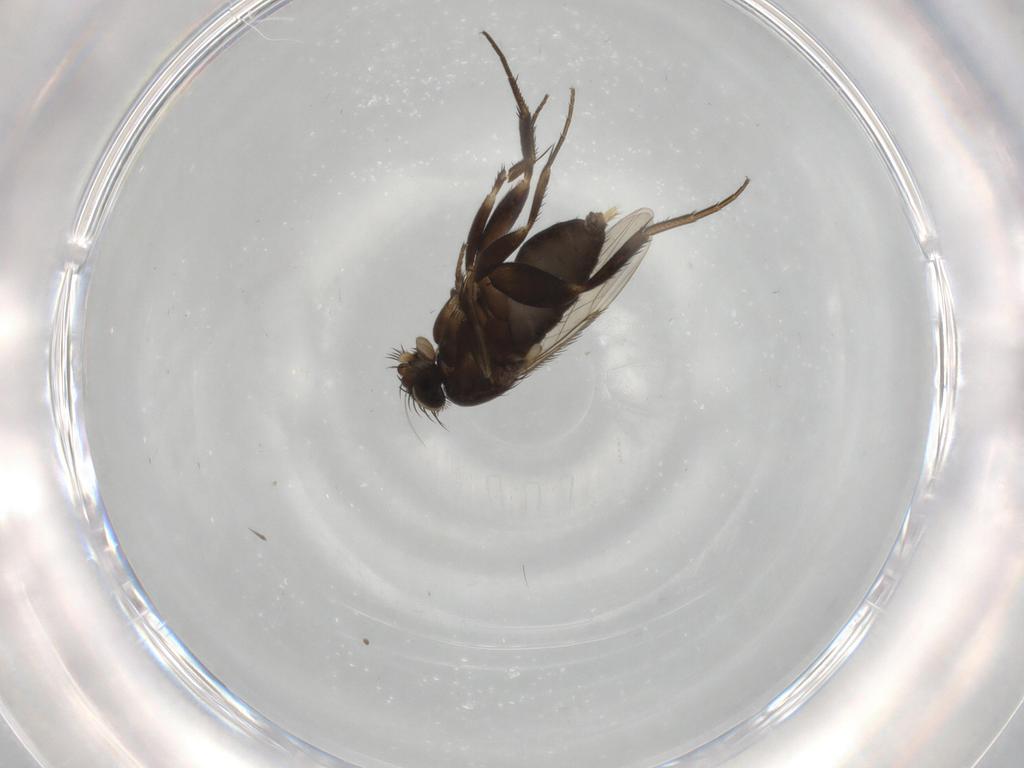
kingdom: Animalia
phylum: Arthropoda
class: Insecta
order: Diptera
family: Phoridae
